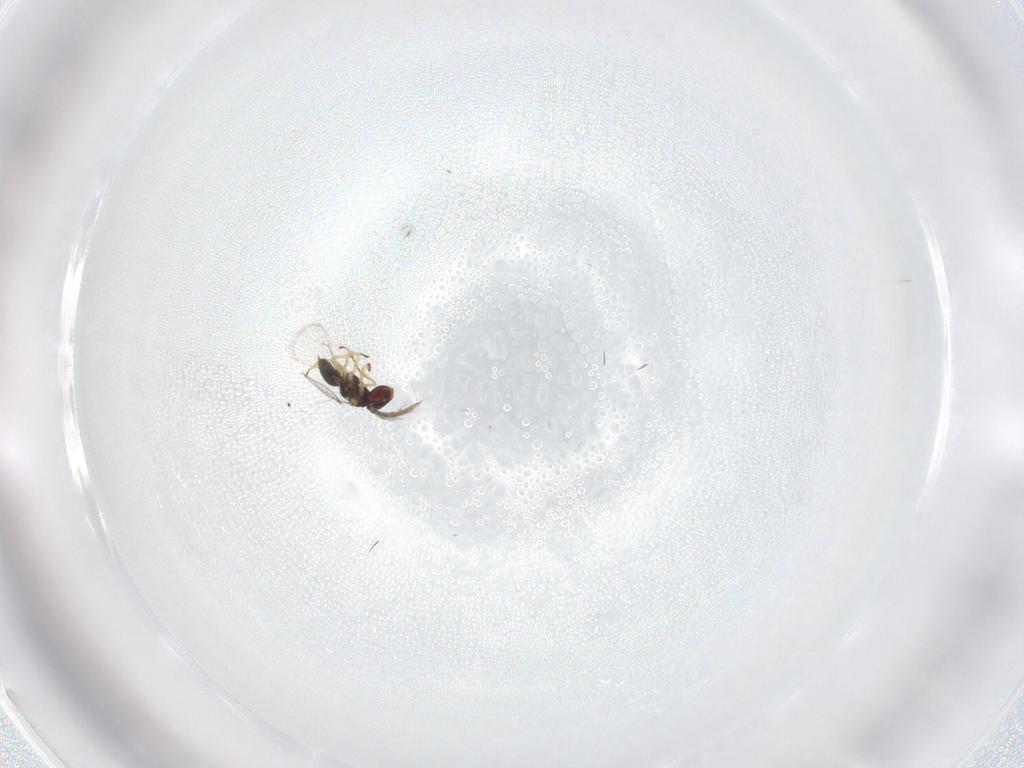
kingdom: Animalia
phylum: Arthropoda
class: Insecta
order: Hymenoptera
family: Eulophidae
